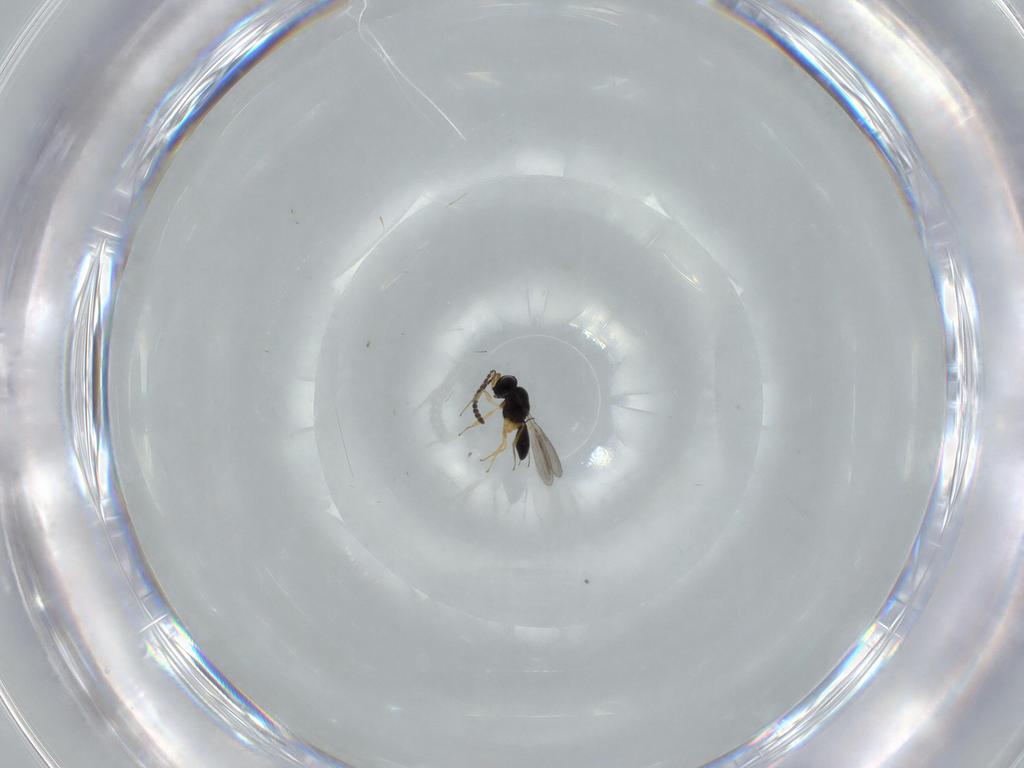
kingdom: Animalia
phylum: Arthropoda
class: Insecta
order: Hymenoptera
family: Scelionidae
